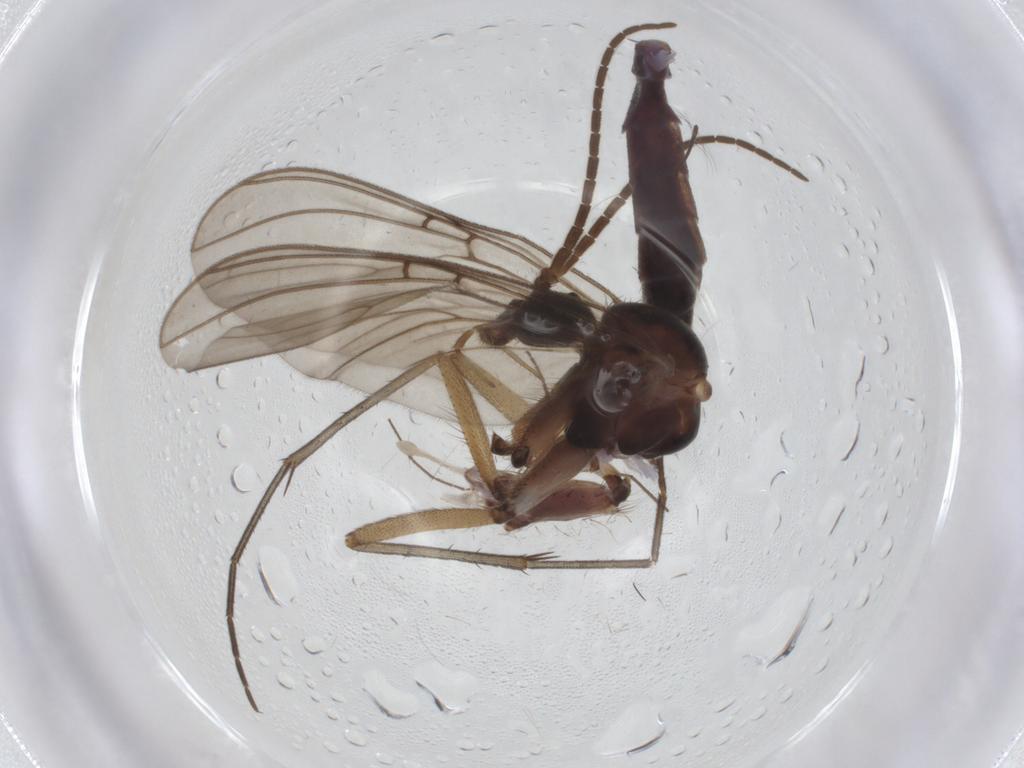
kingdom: Animalia
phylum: Arthropoda
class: Insecta
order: Diptera
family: Mycetophilidae
